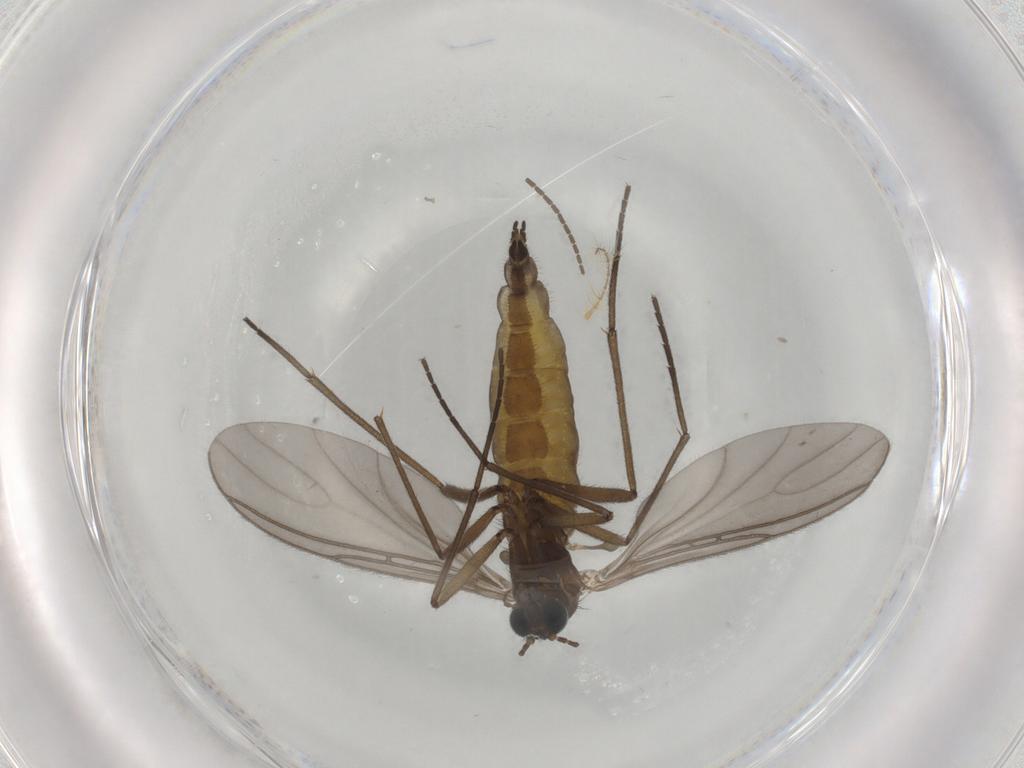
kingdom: Animalia
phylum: Arthropoda
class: Insecta
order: Diptera
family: Sciaridae
